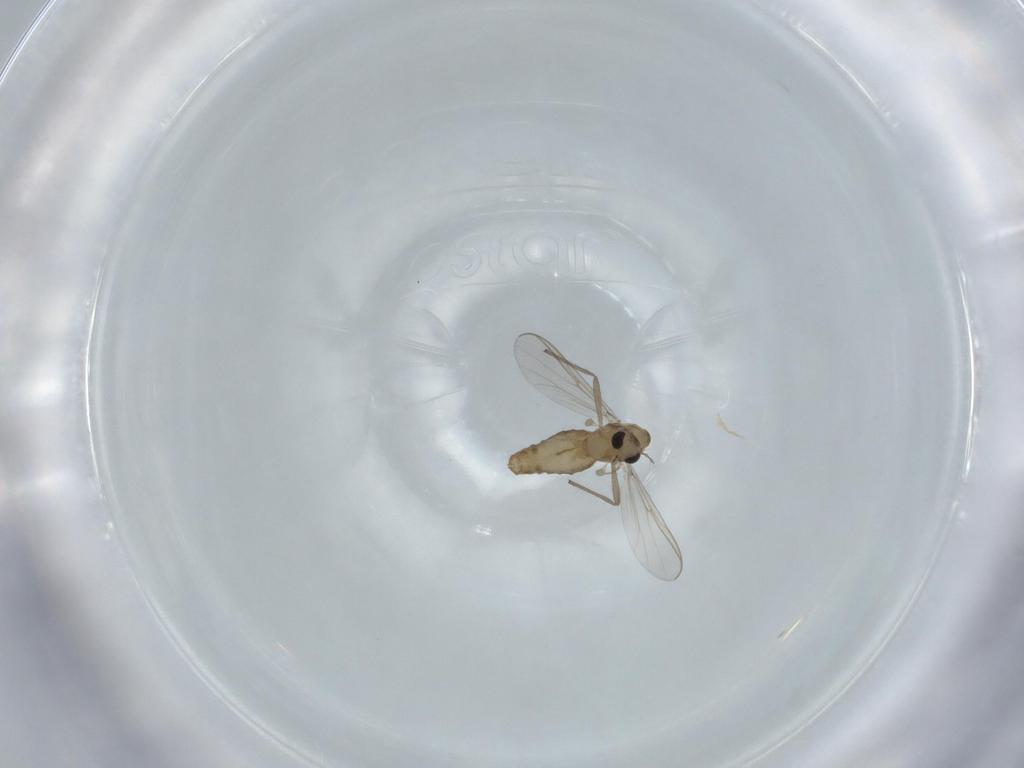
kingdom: Animalia
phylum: Arthropoda
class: Insecta
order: Diptera
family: Chironomidae
